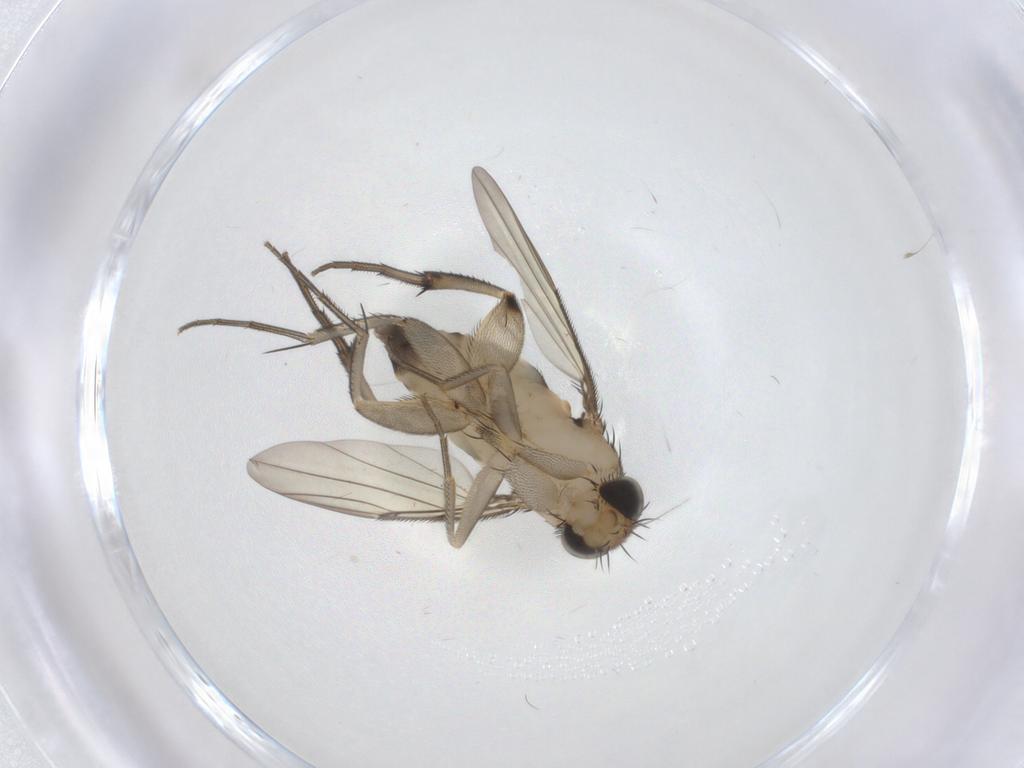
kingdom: Animalia
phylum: Arthropoda
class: Insecta
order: Diptera
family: Phoridae
